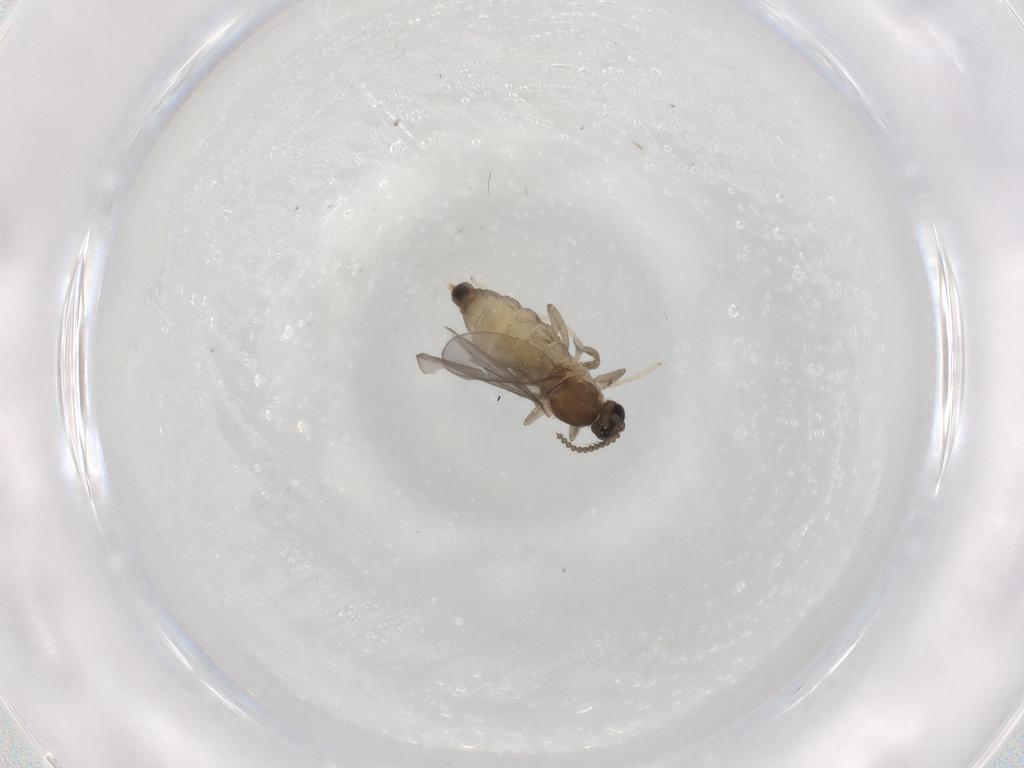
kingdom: Animalia
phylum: Arthropoda
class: Insecta
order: Diptera
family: Cecidomyiidae
